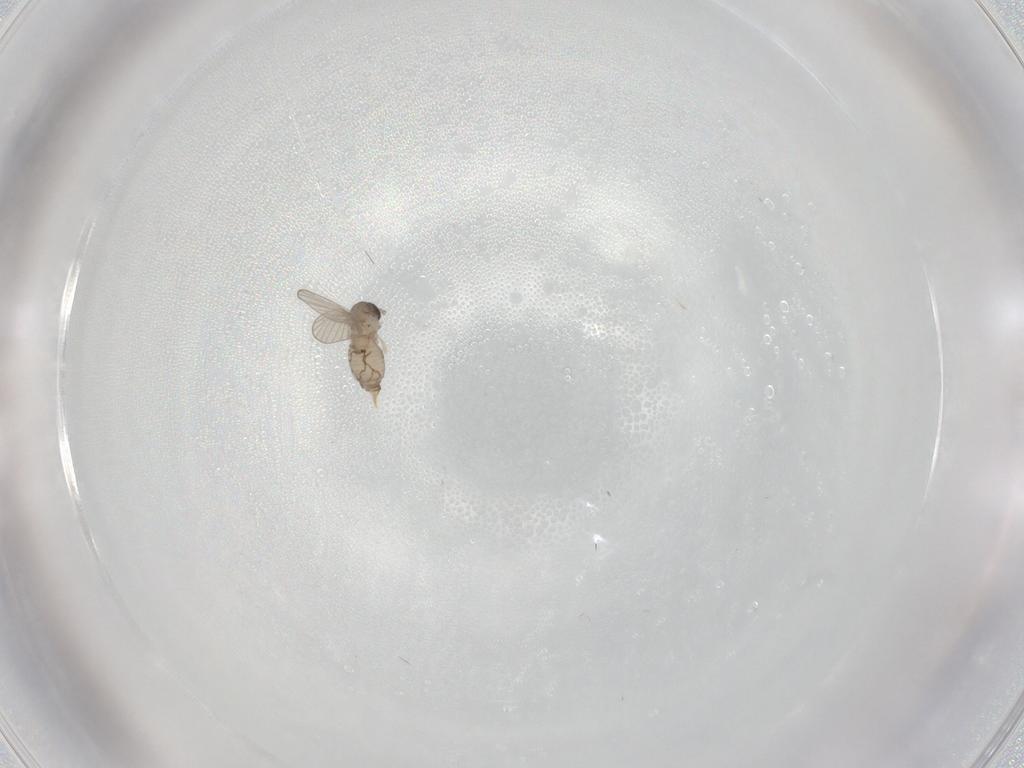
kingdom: Animalia
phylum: Arthropoda
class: Insecta
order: Diptera
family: Psychodidae
